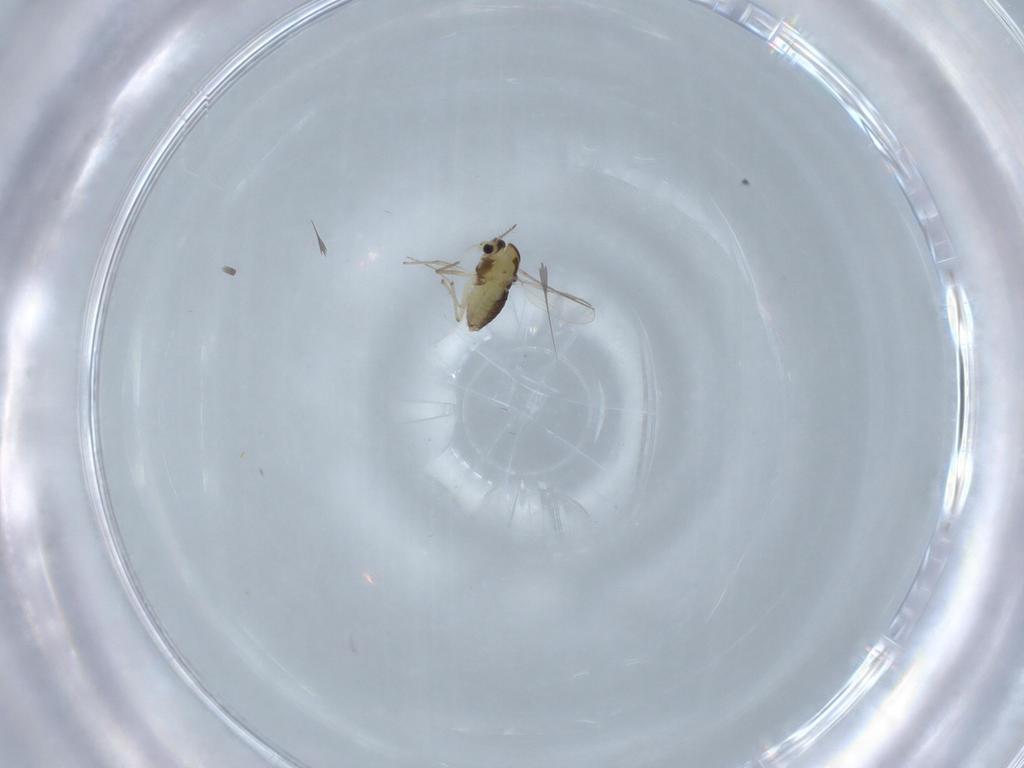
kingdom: Animalia
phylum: Arthropoda
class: Insecta
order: Diptera
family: Chironomidae
